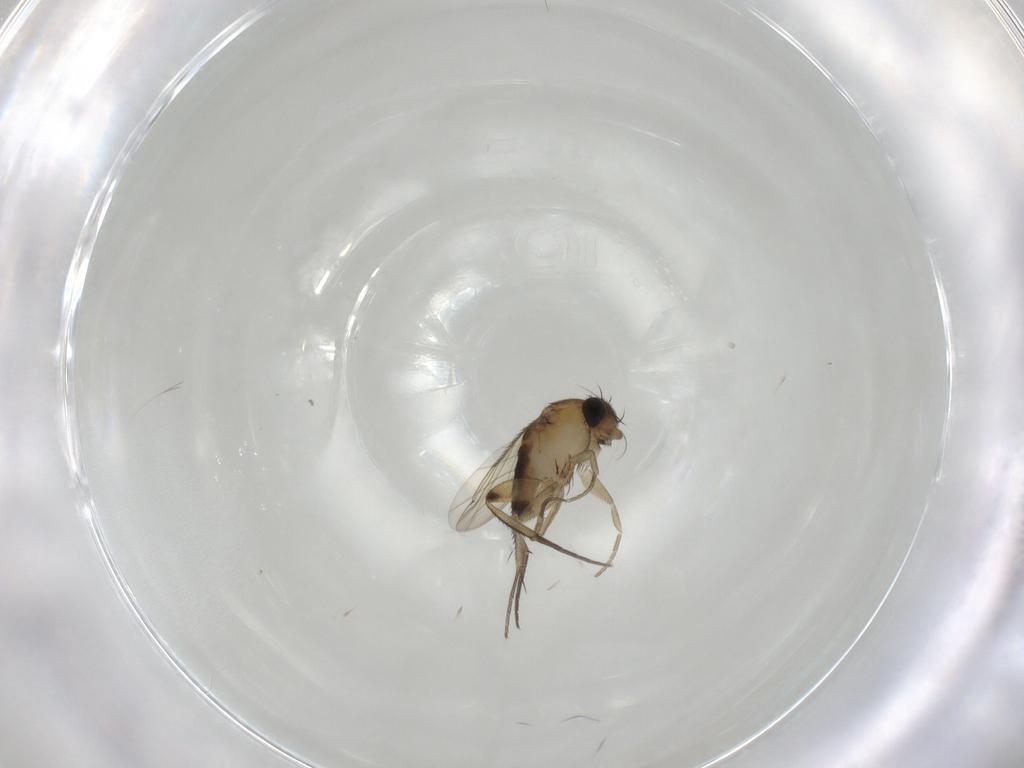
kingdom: Animalia
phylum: Arthropoda
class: Insecta
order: Diptera
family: Phoridae
